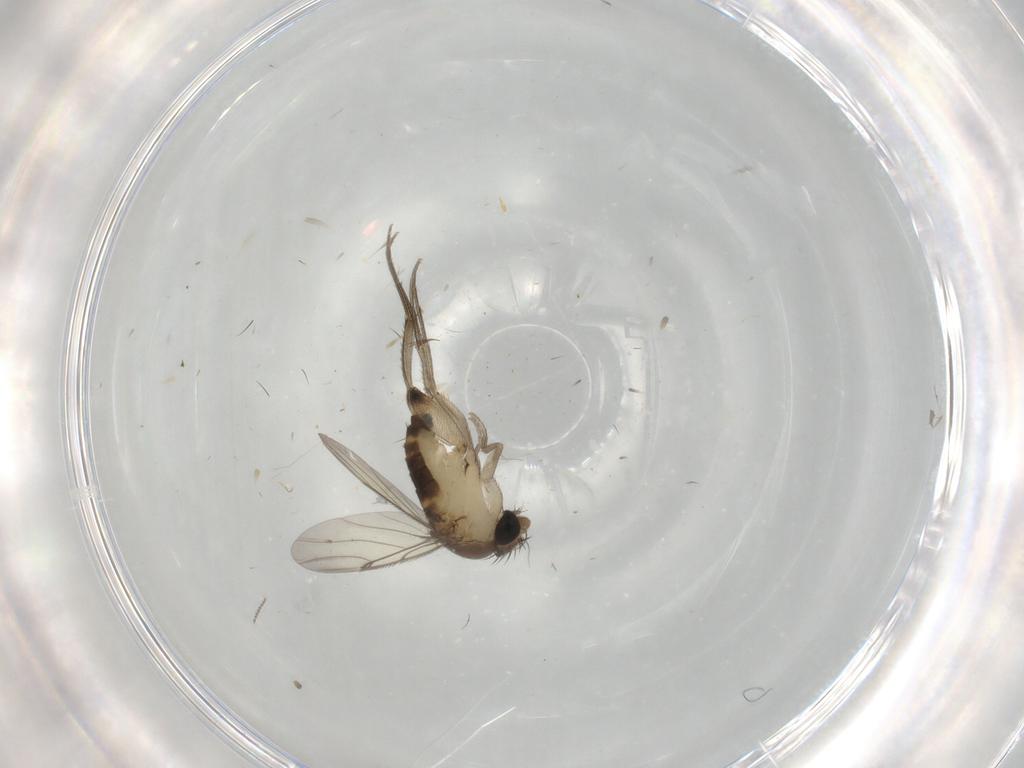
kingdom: Animalia
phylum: Arthropoda
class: Insecta
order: Diptera
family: Phoridae
